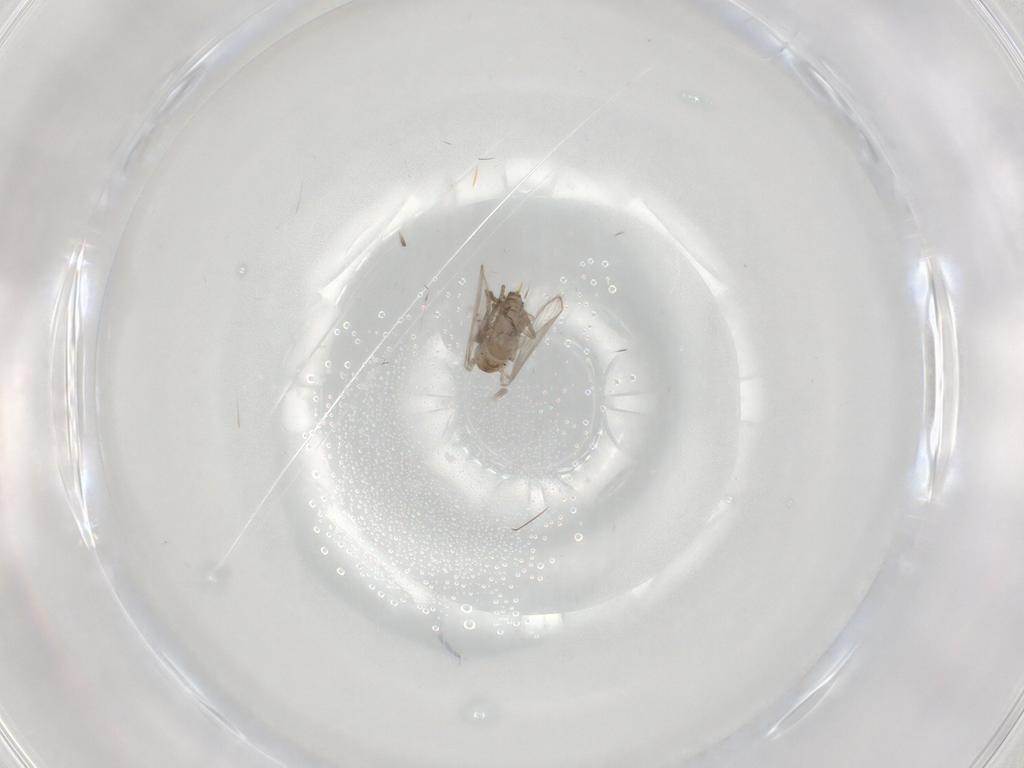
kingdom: Animalia
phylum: Arthropoda
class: Insecta
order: Diptera
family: Psychodidae
